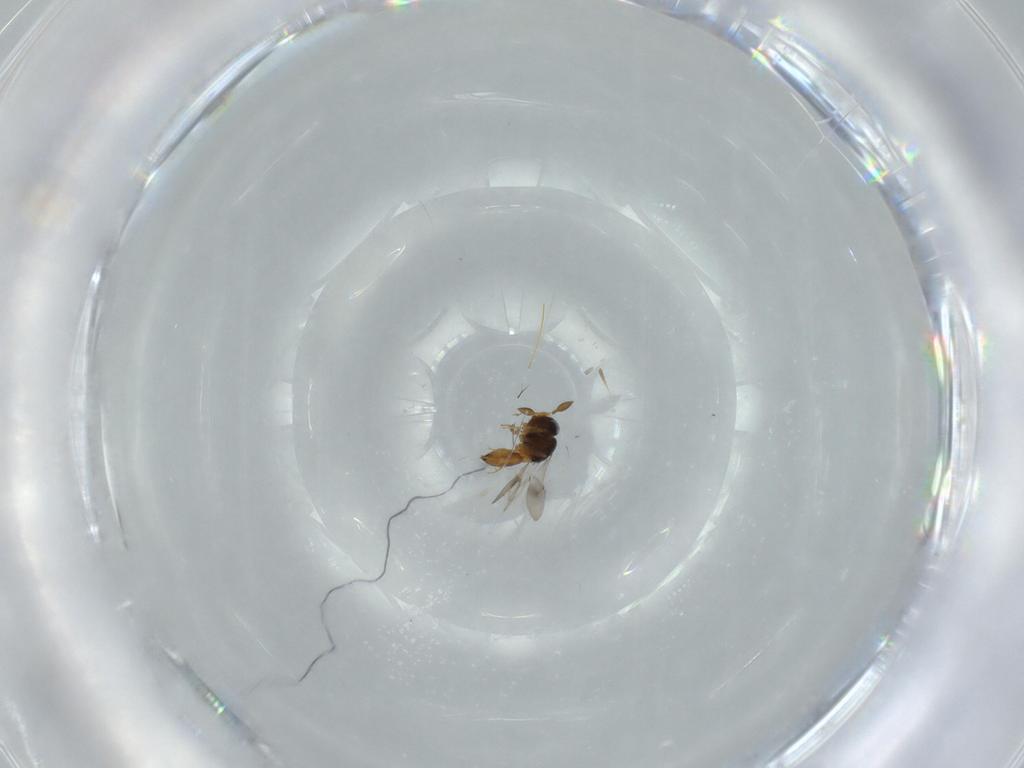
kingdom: Animalia
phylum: Arthropoda
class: Insecta
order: Hymenoptera
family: Scelionidae
